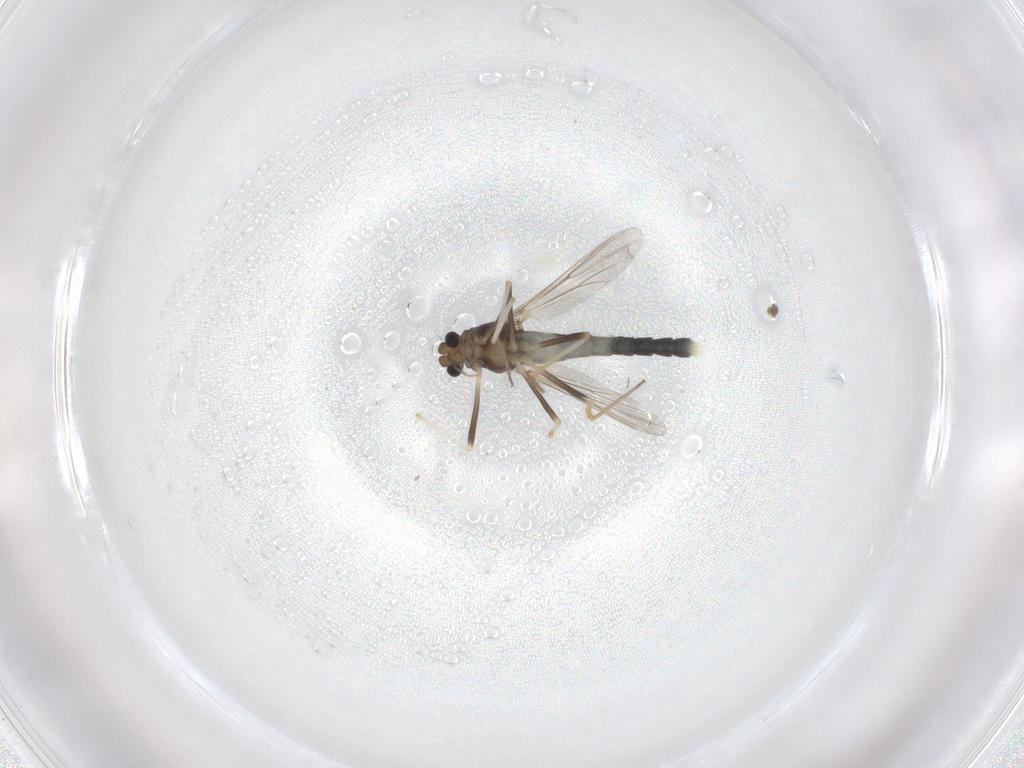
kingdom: Animalia
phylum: Arthropoda
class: Insecta
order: Diptera
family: Chironomidae
